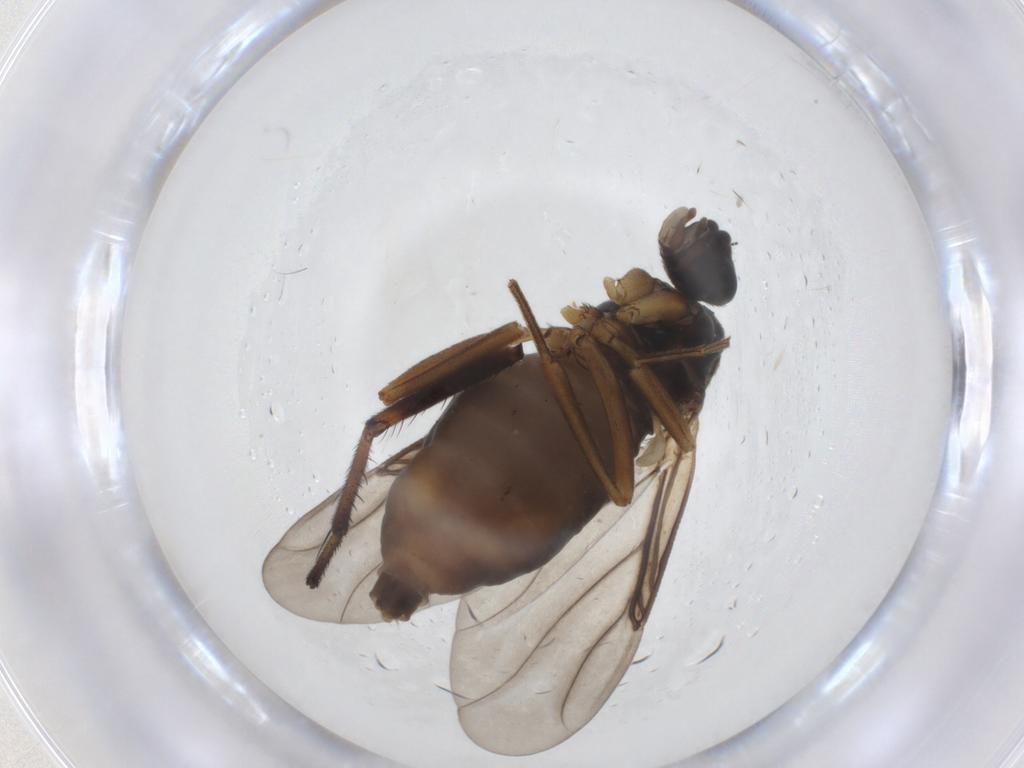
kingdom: Animalia
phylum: Arthropoda
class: Insecta
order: Diptera
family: Empididae
